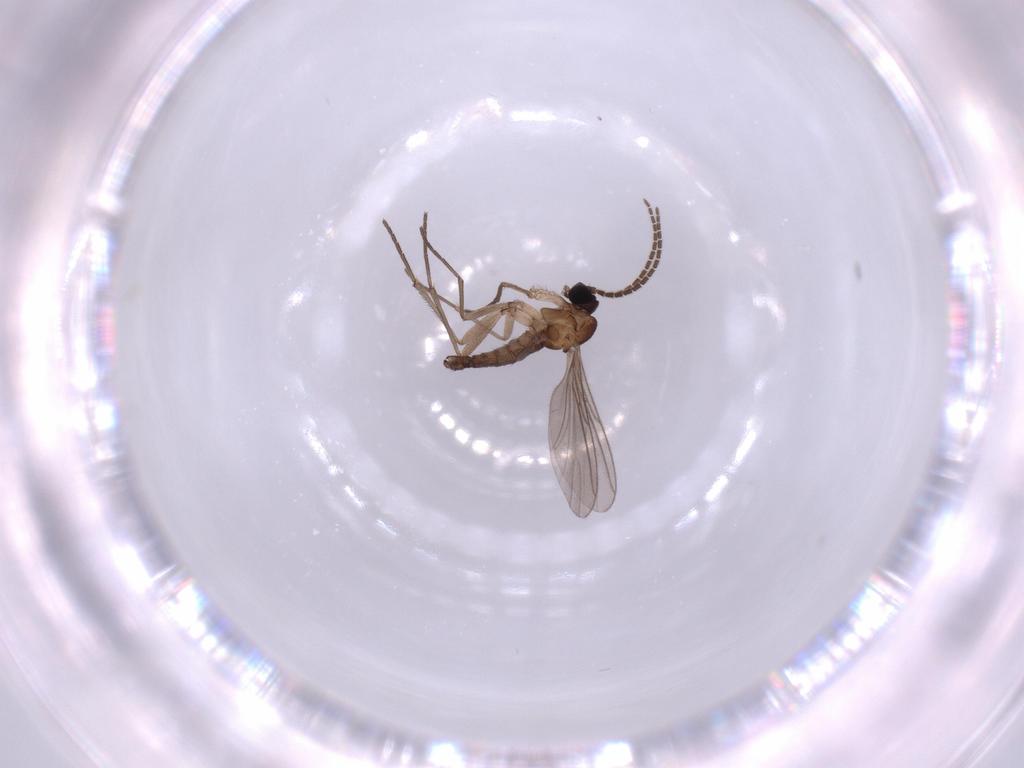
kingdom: Animalia
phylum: Arthropoda
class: Insecta
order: Diptera
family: Sciaridae
